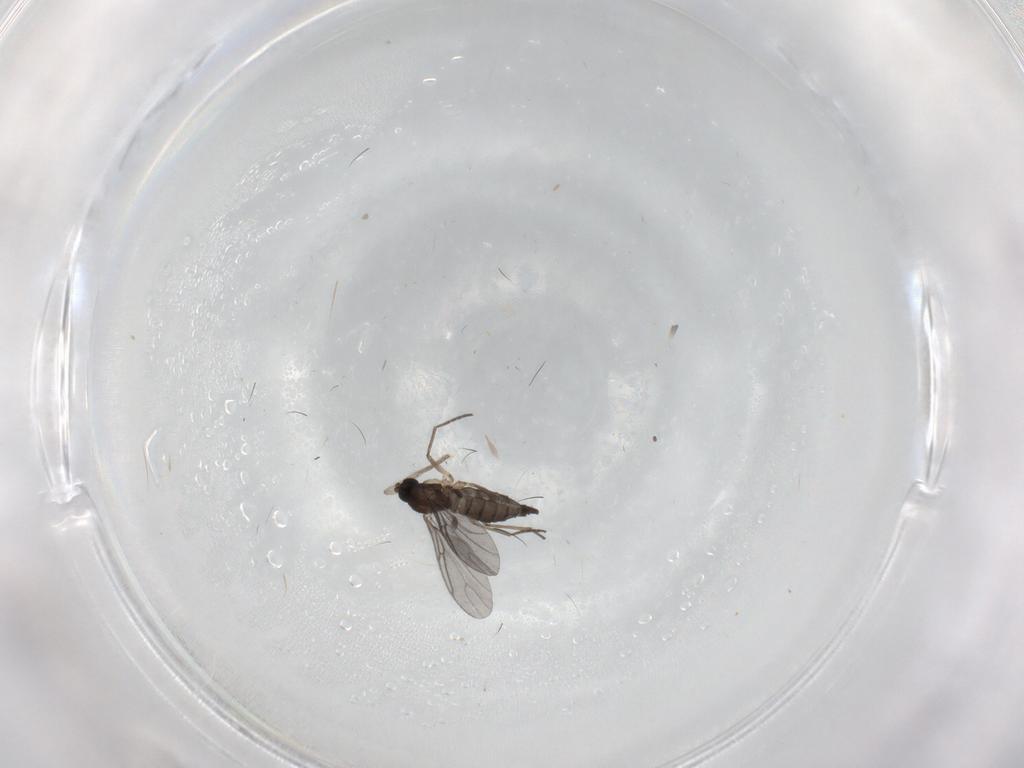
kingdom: Animalia
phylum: Arthropoda
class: Insecta
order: Diptera
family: Sciaridae
